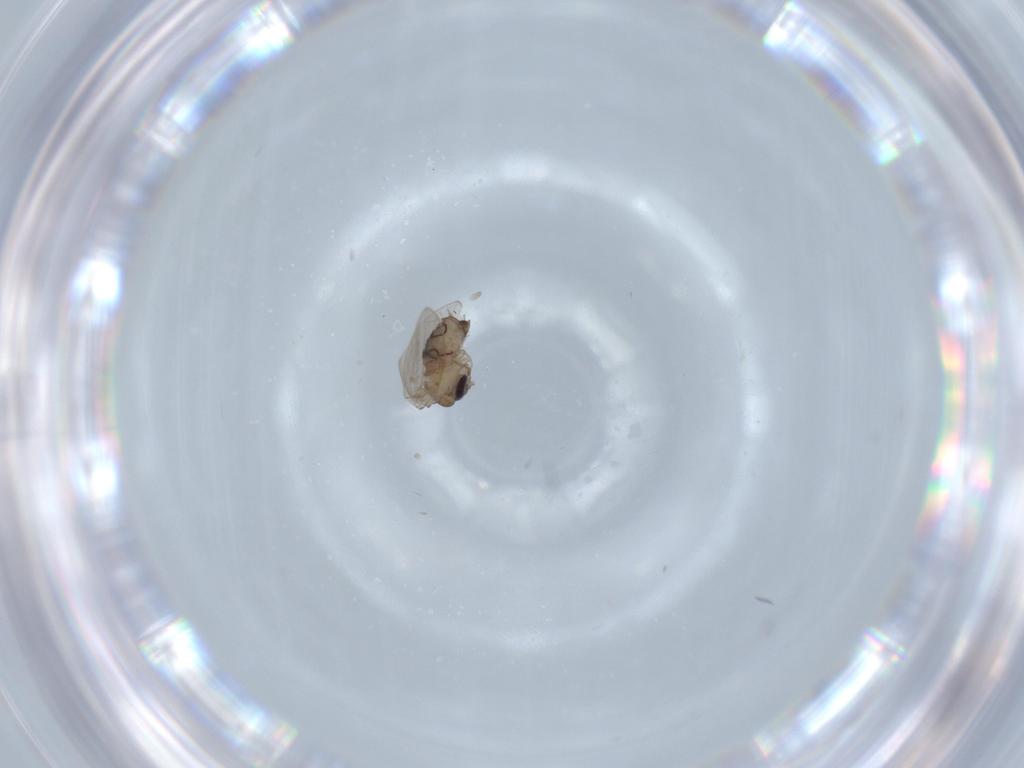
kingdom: Animalia
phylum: Arthropoda
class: Insecta
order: Diptera
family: Psychodidae
